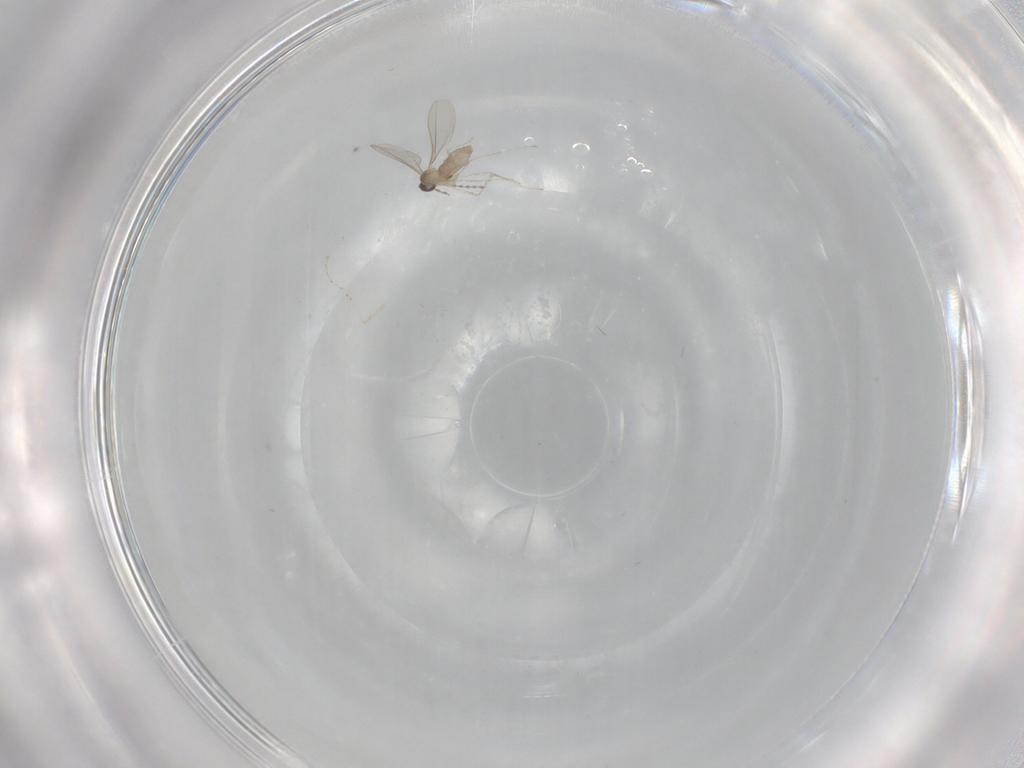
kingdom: Animalia
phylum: Arthropoda
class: Insecta
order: Diptera
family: Cecidomyiidae
